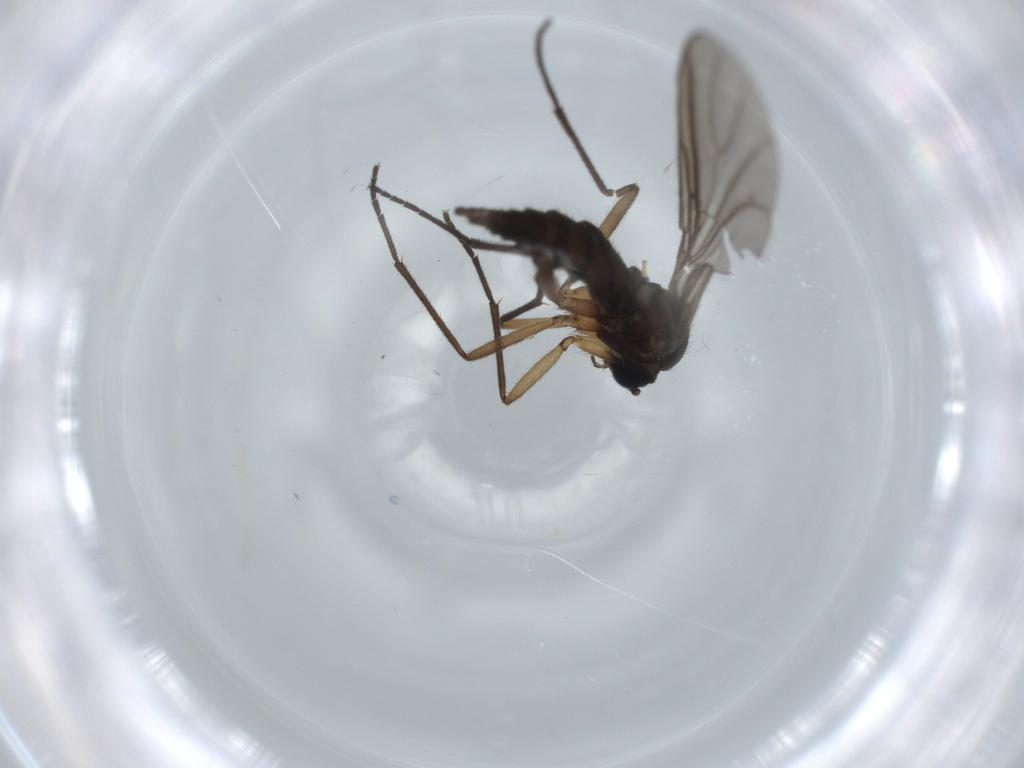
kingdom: Animalia
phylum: Arthropoda
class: Insecta
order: Diptera
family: Sciaridae
